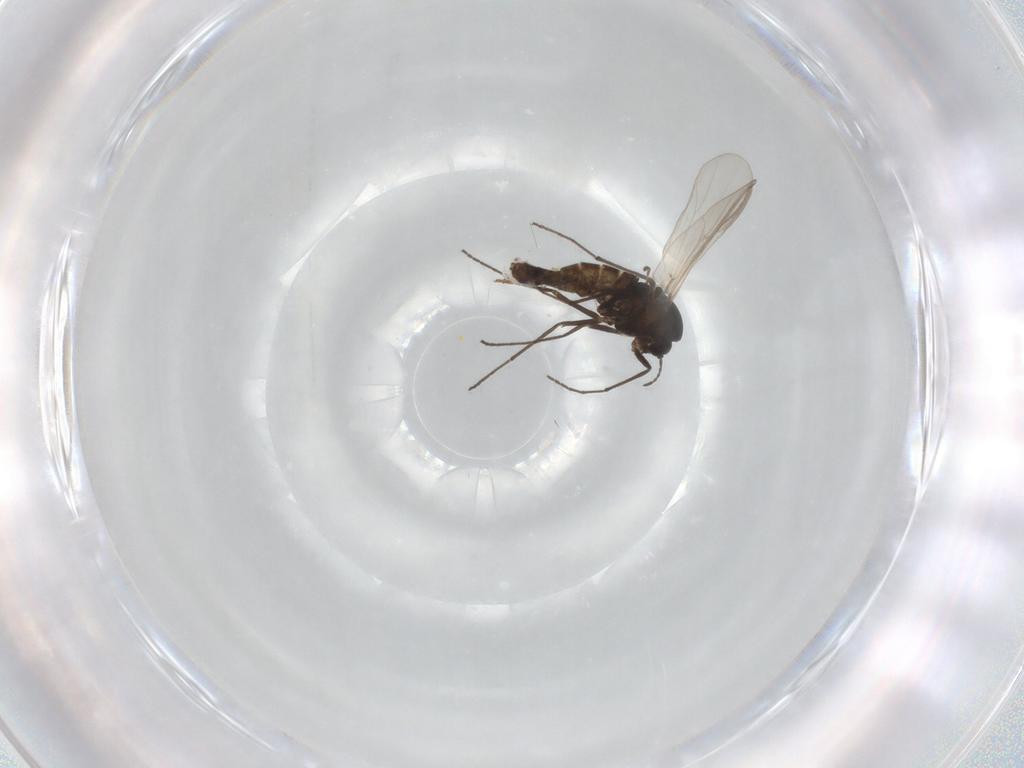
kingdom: Animalia
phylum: Arthropoda
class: Insecta
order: Diptera
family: Muscidae
